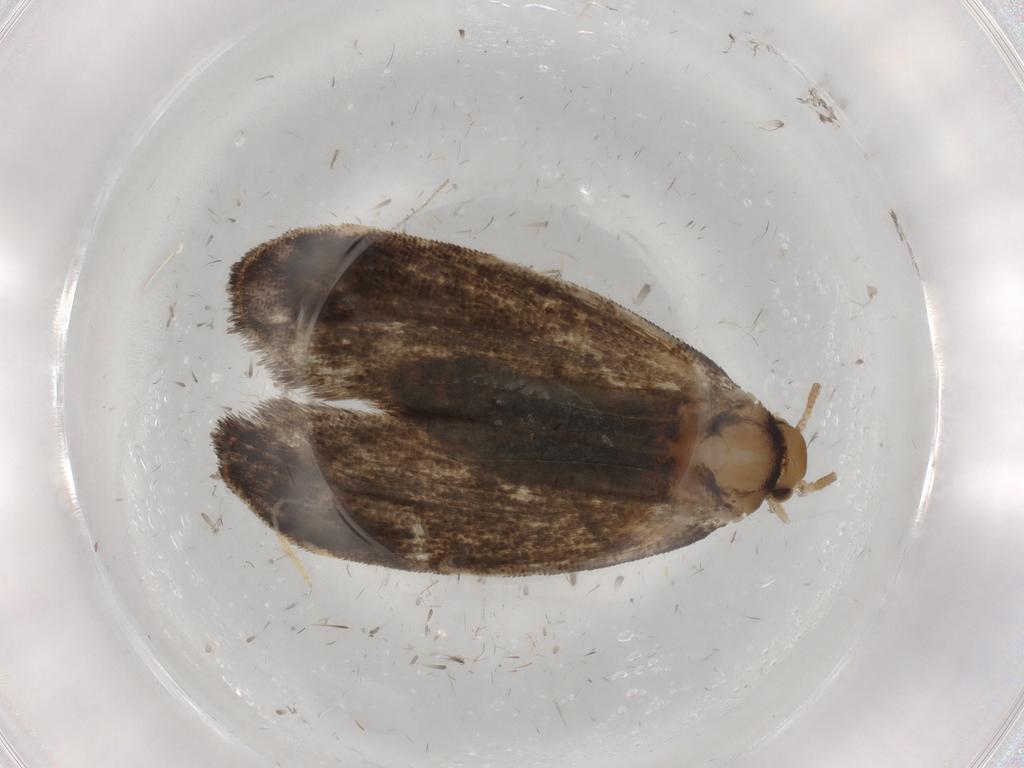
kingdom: Animalia
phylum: Arthropoda
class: Insecta
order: Lepidoptera
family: Dryadaulidae
